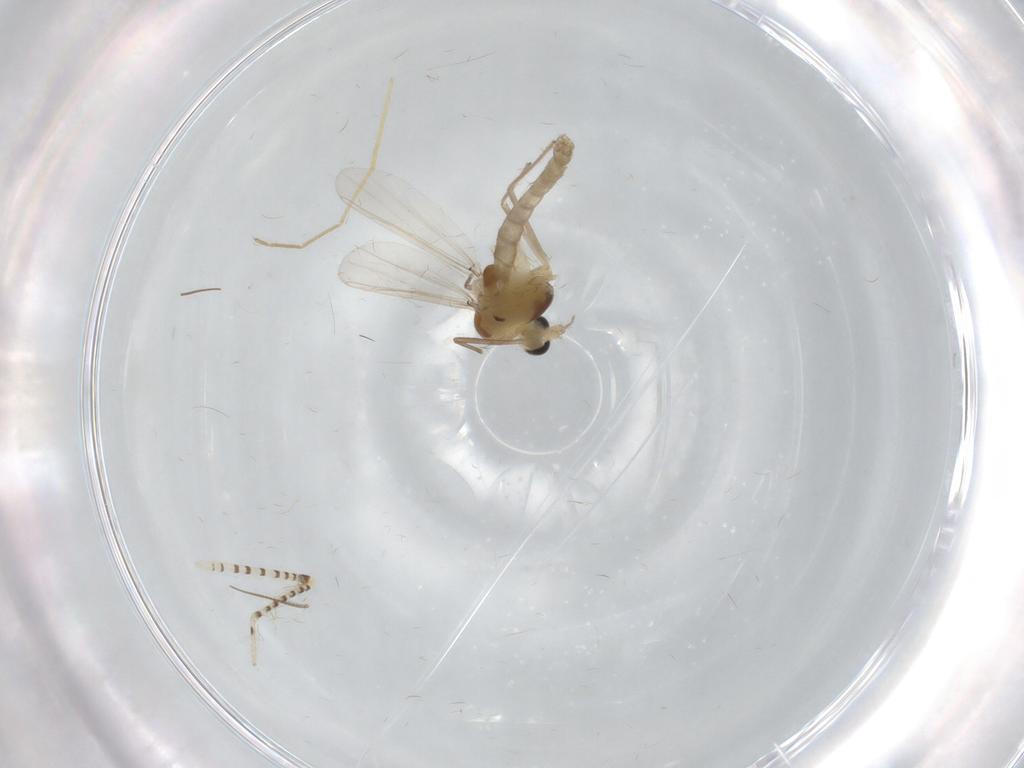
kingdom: Animalia
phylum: Arthropoda
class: Insecta
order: Diptera
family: Chironomidae
